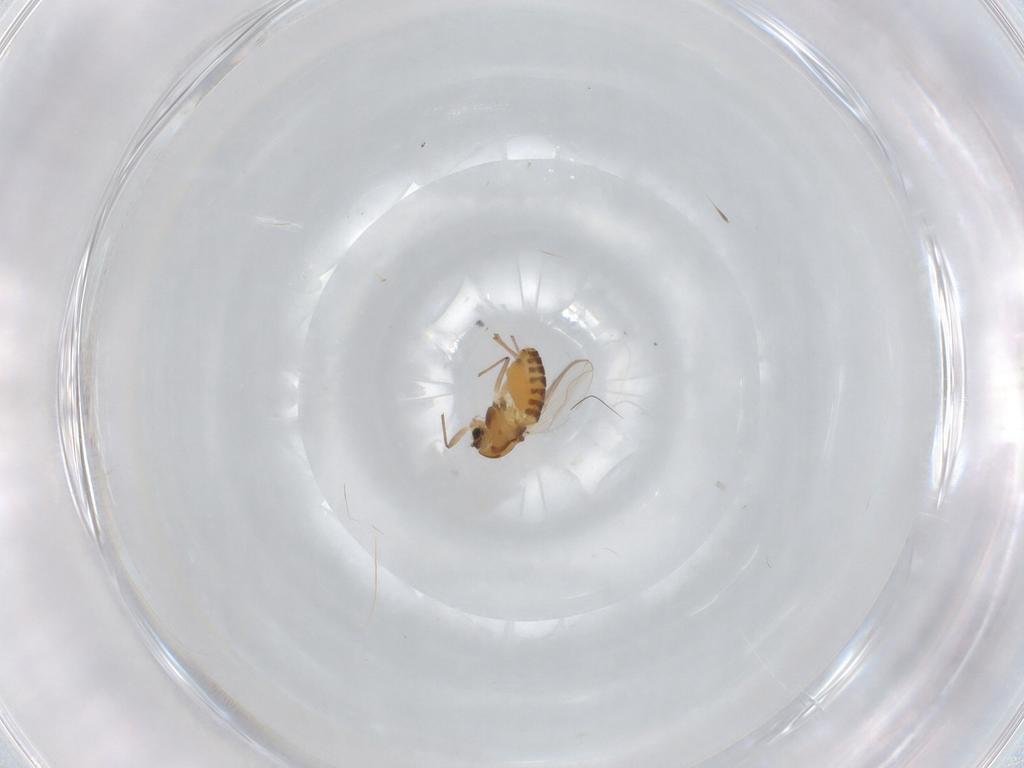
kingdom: Animalia
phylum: Arthropoda
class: Insecta
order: Diptera
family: Chironomidae
